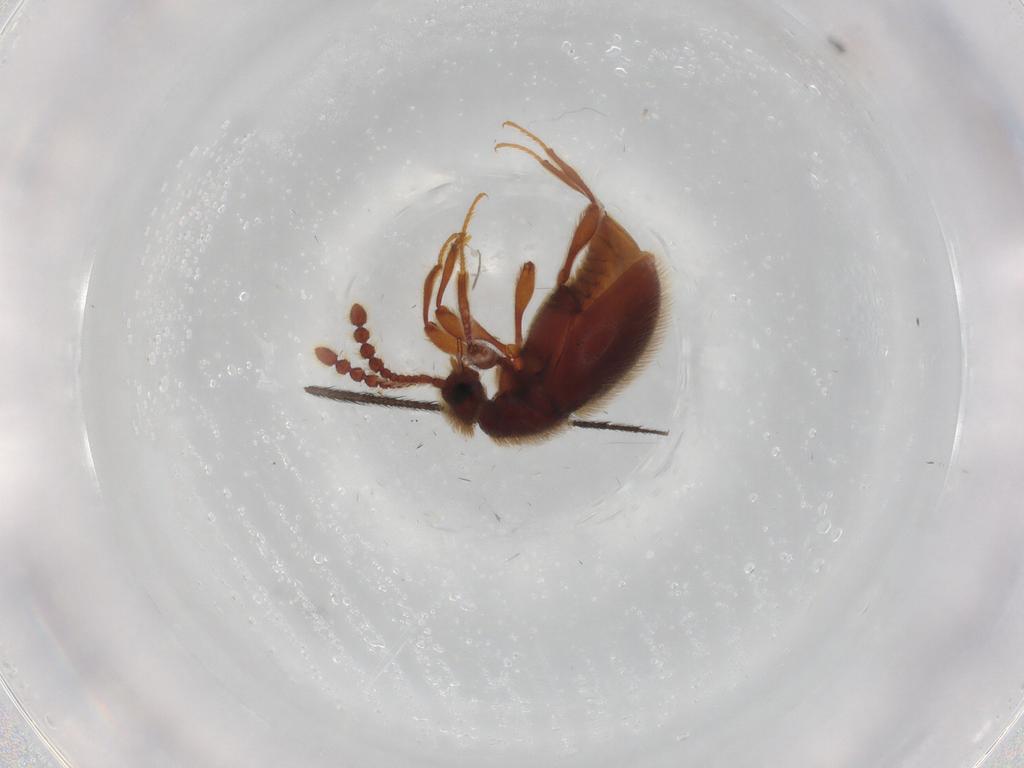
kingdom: Animalia
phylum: Arthropoda
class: Insecta
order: Coleoptera
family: Staphylinidae
